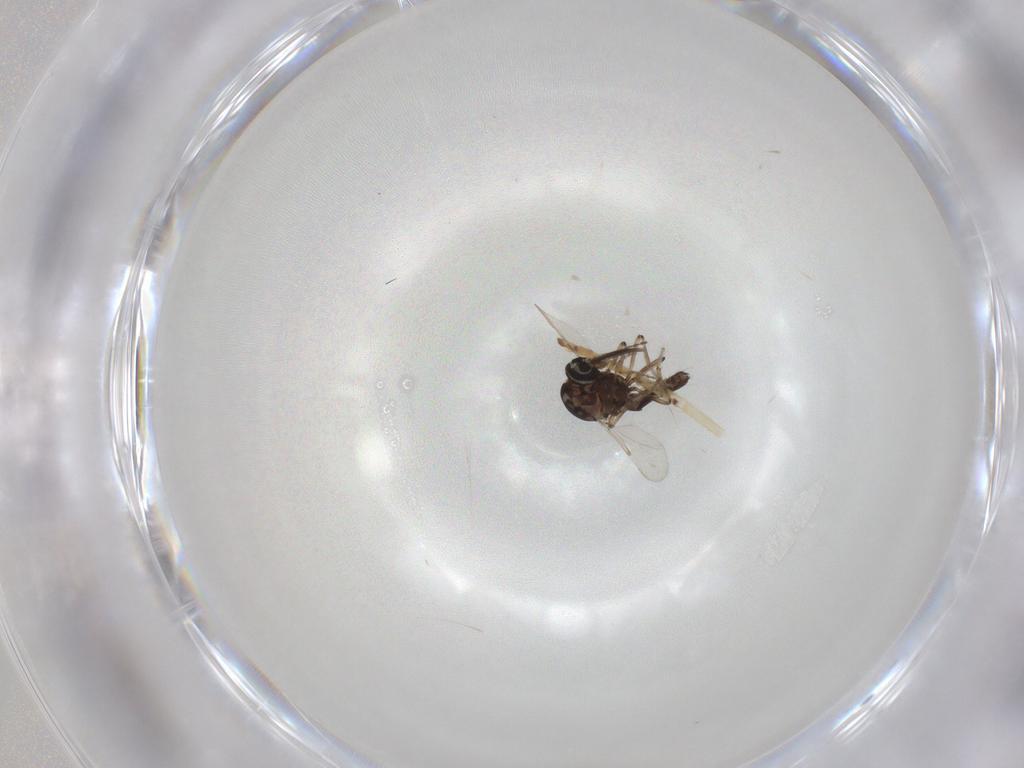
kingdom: Animalia
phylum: Arthropoda
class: Insecta
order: Diptera
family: Ceratopogonidae
